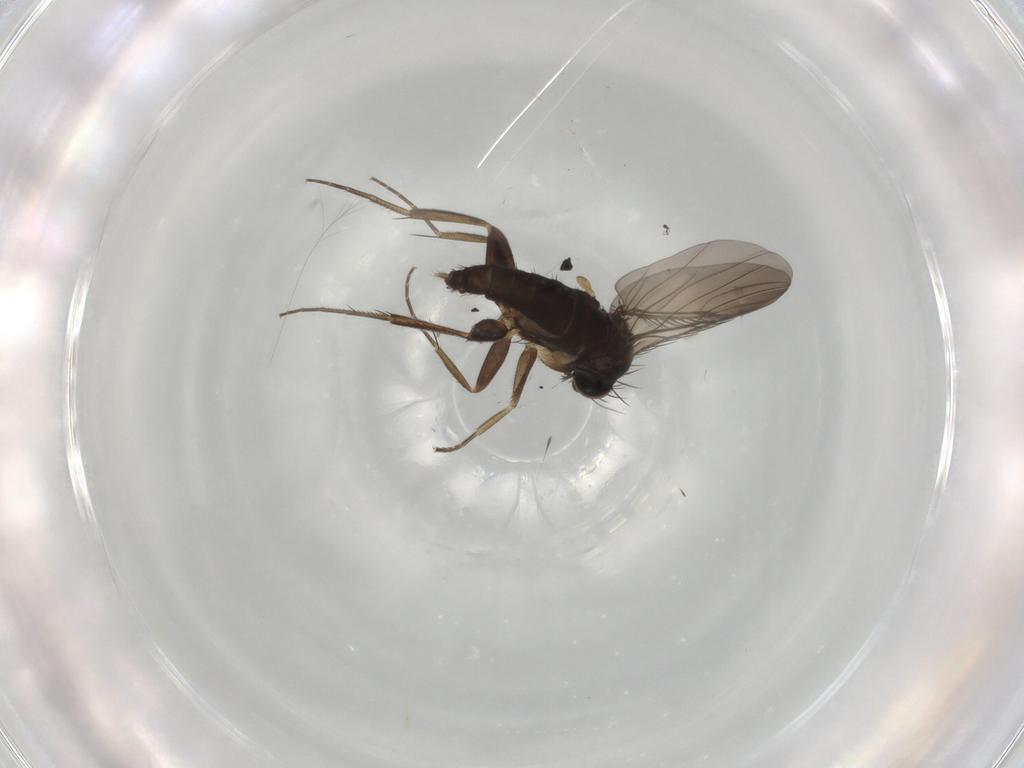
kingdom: Animalia
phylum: Arthropoda
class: Insecta
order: Diptera
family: Phoridae
